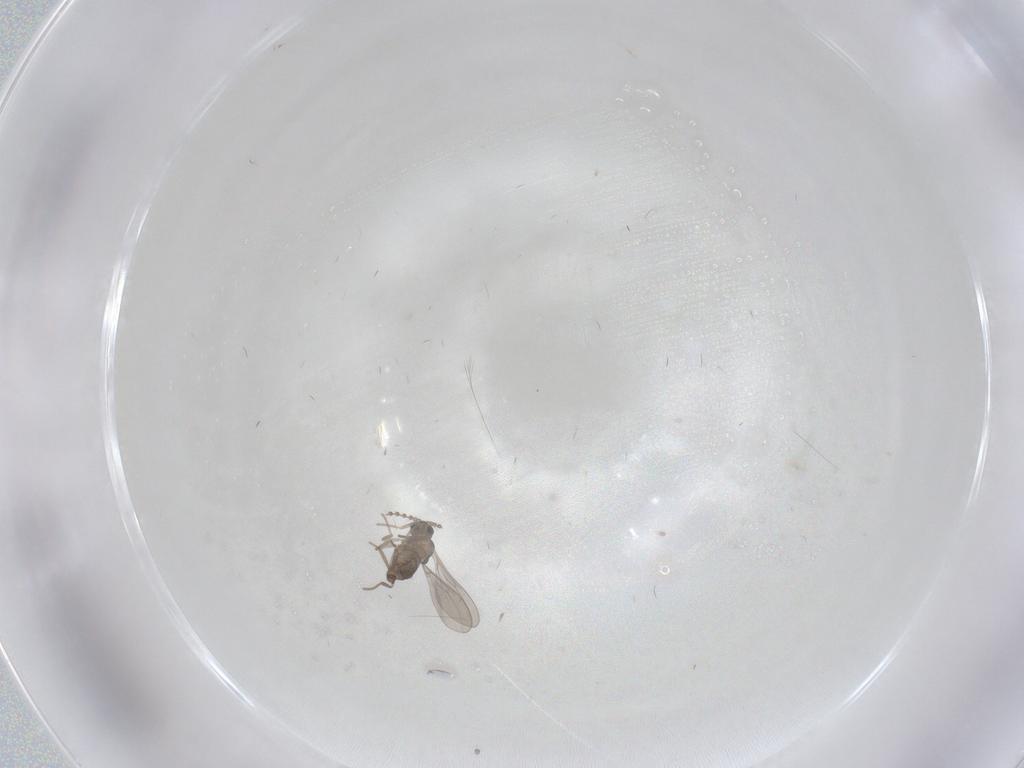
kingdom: Animalia
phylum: Arthropoda
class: Insecta
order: Diptera
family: Cecidomyiidae
